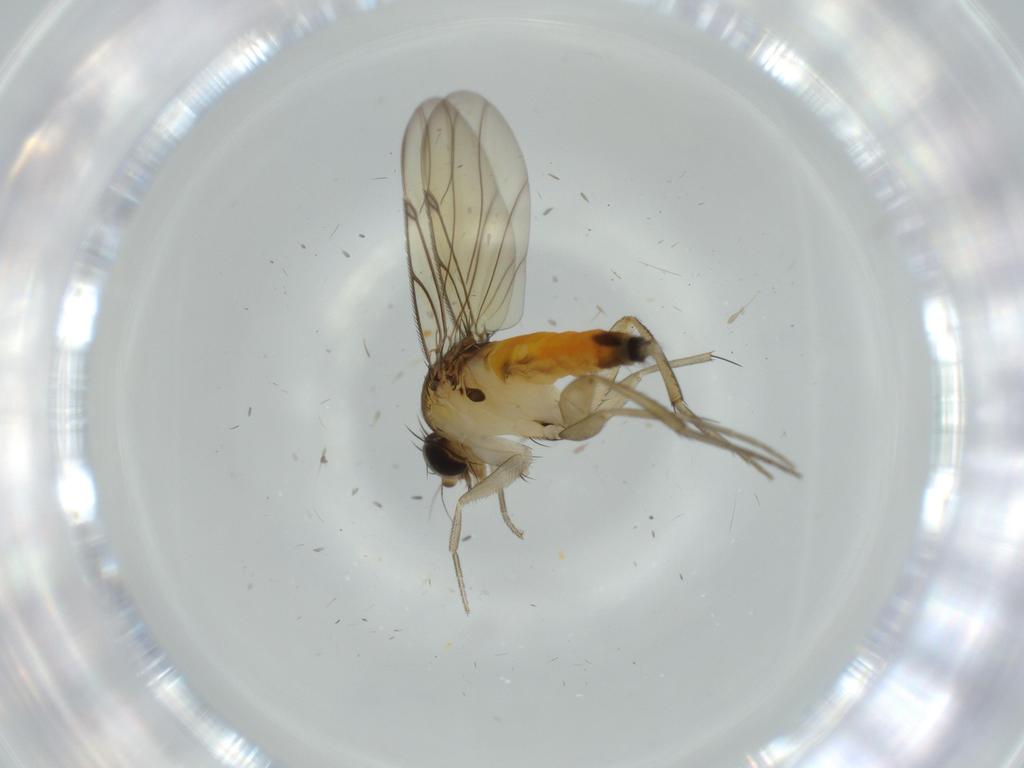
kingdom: Animalia
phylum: Arthropoda
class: Insecta
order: Diptera
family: Phoridae
